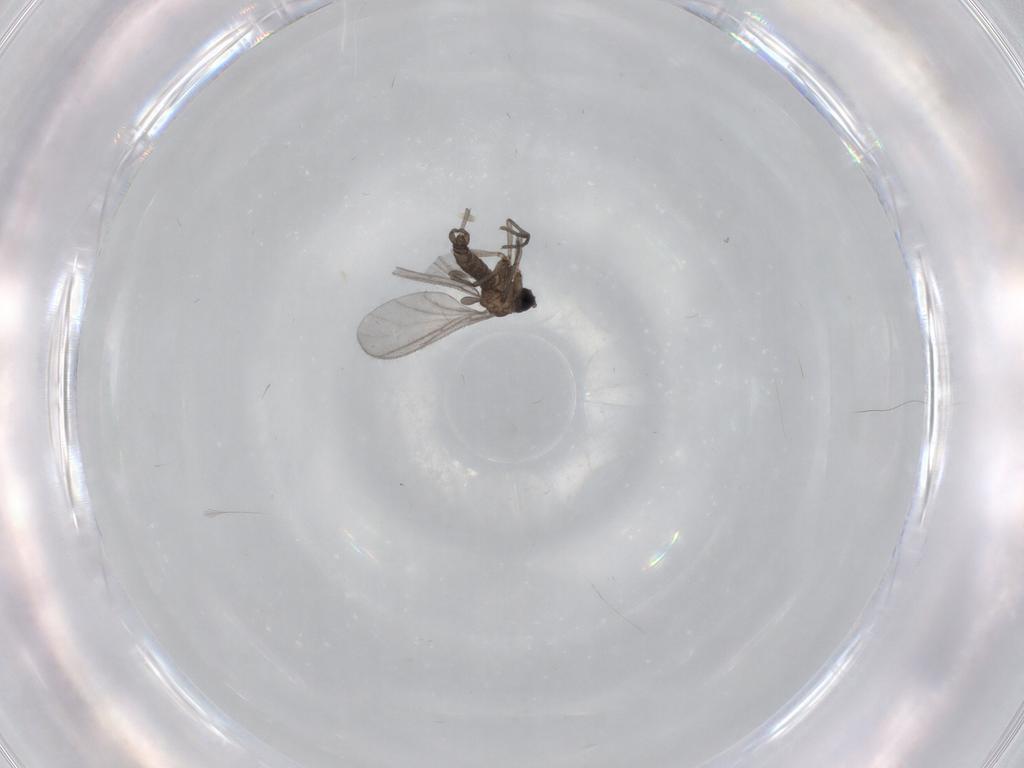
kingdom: Animalia
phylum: Arthropoda
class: Insecta
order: Diptera
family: Sciaridae
